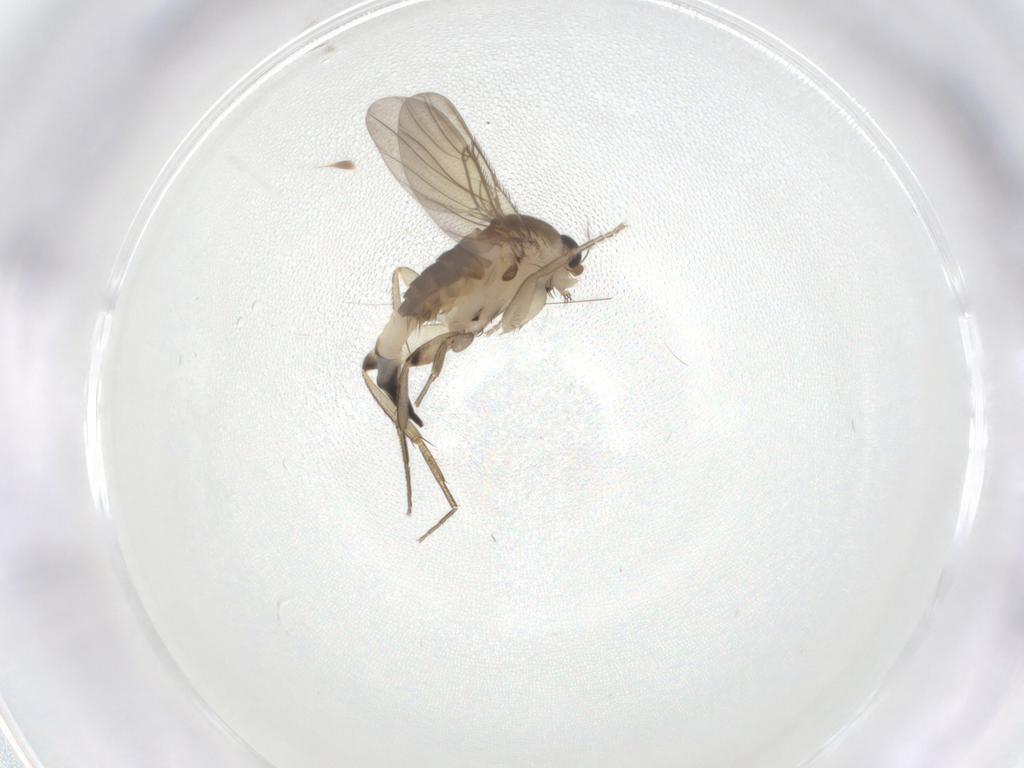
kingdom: Animalia
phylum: Arthropoda
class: Insecta
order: Diptera
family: Phoridae
